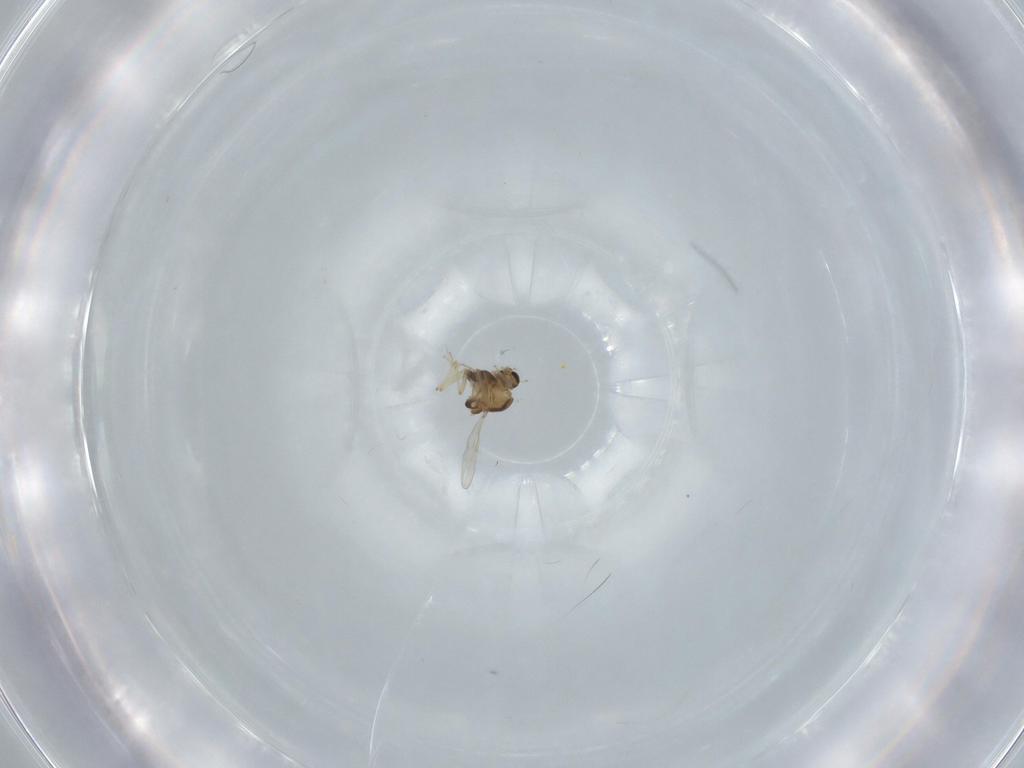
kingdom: Animalia
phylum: Arthropoda
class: Insecta
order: Diptera
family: Chironomidae
